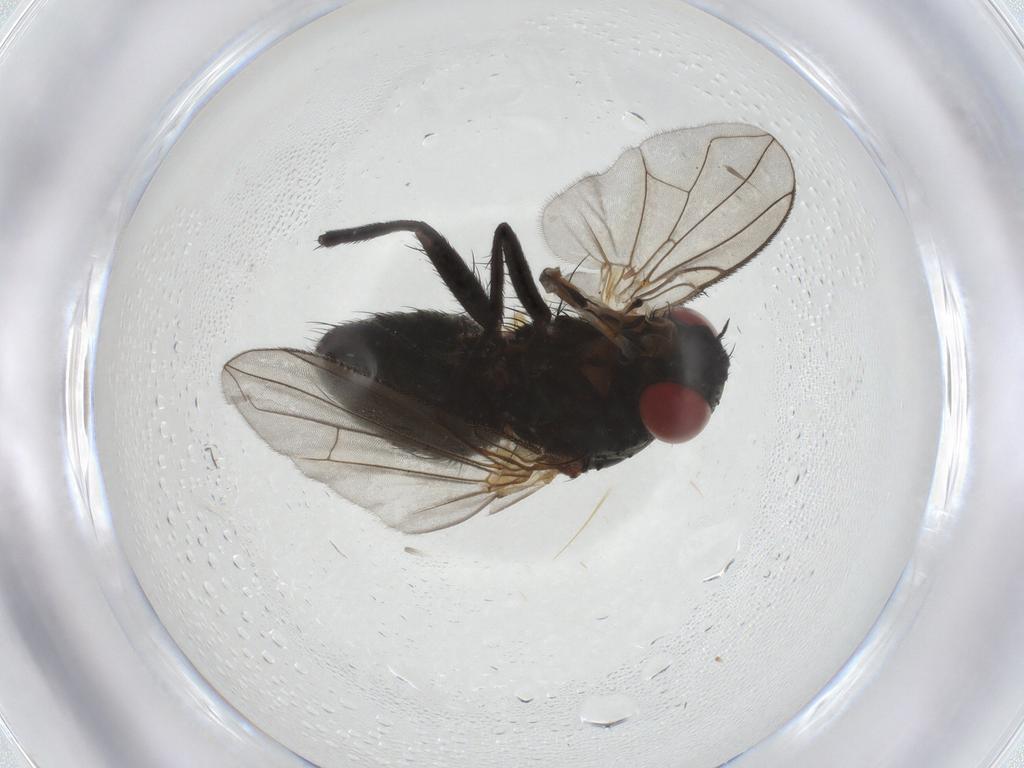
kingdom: Animalia
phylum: Arthropoda
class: Insecta
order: Diptera
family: Tachinidae
